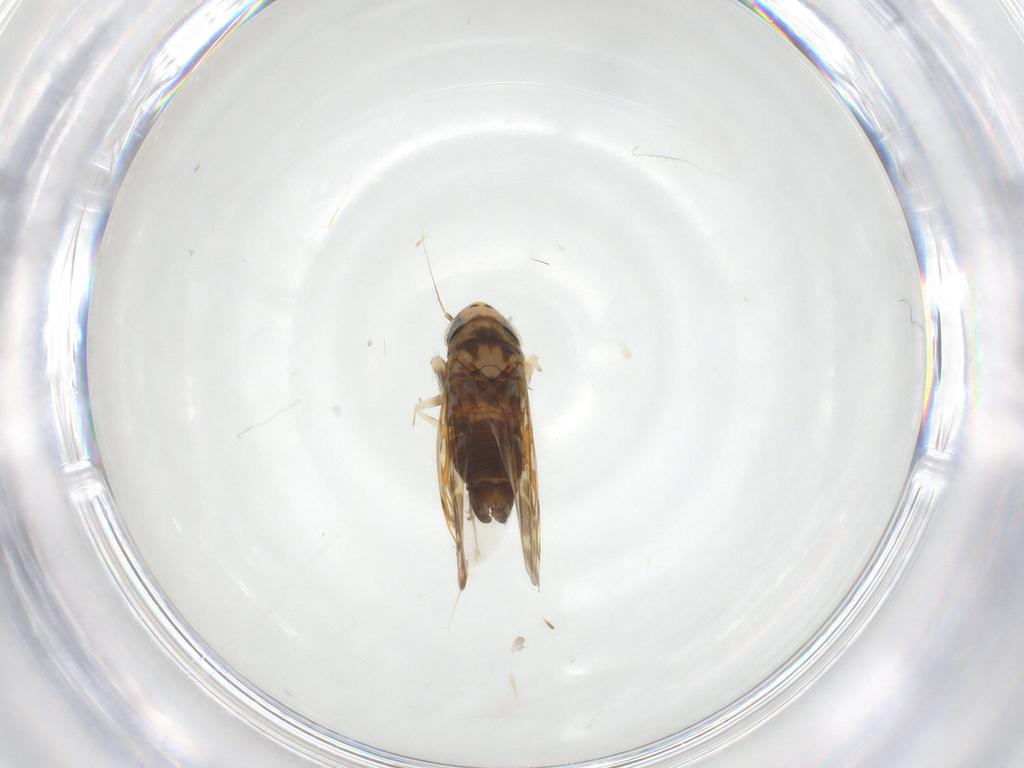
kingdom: Animalia
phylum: Arthropoda
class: Insecta
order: Hemiptera
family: Cicadellidae
